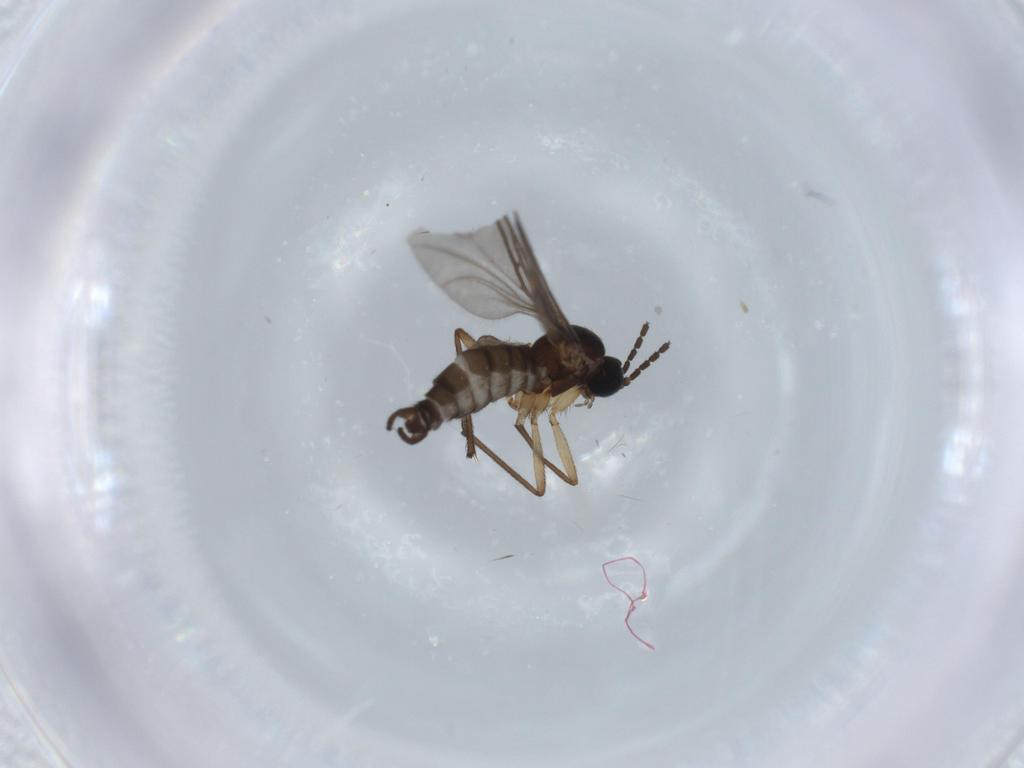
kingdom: Animalia
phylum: Arthropoda
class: Insecta
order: Diptera
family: Sciaridae
